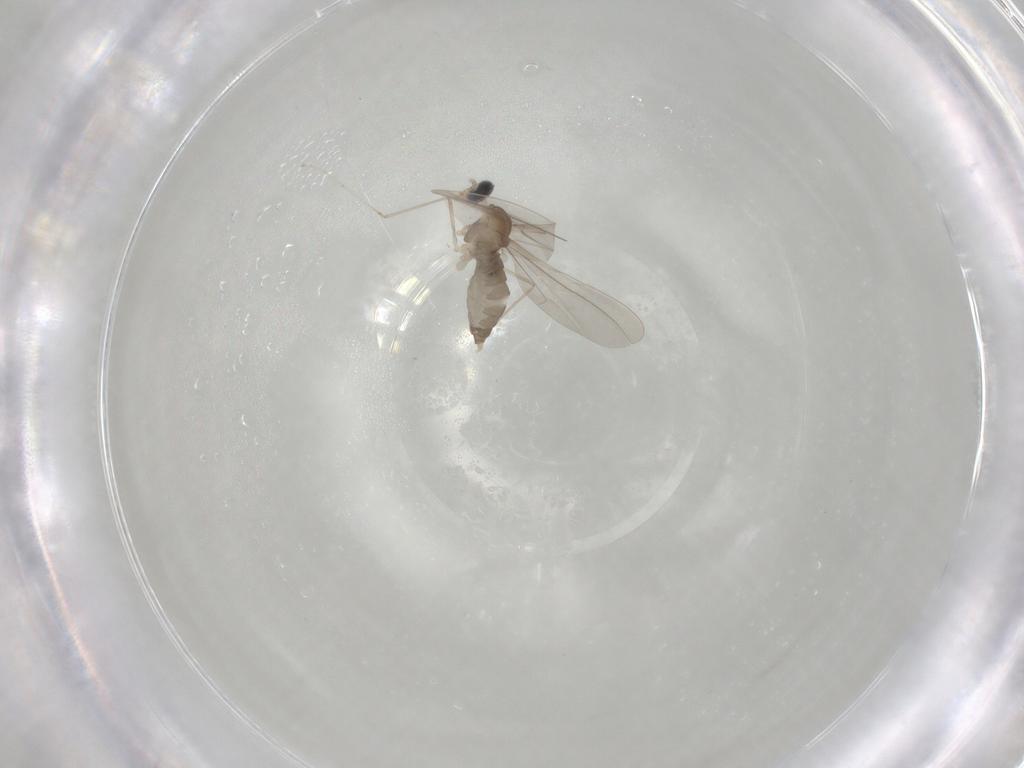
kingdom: Animalia
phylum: Arthropoda
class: Insecta
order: Diptera
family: Cecidomyiidae
